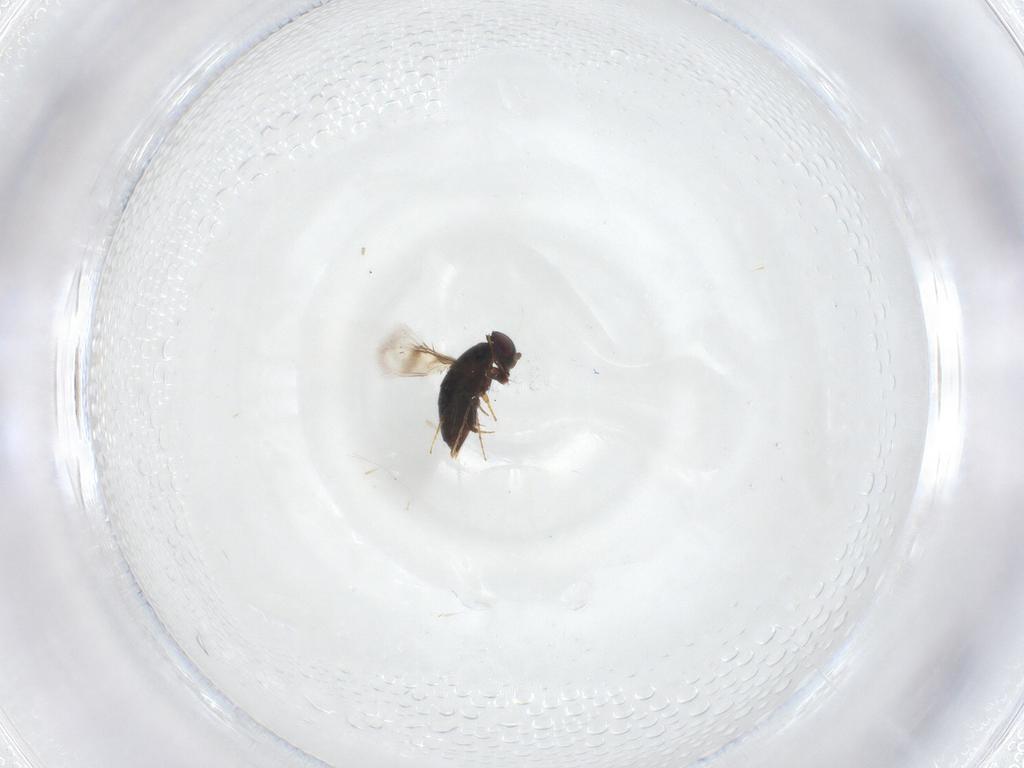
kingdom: Animalia
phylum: Arthropoda
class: Insecta
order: Hymenoptera
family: Signiphoridae
